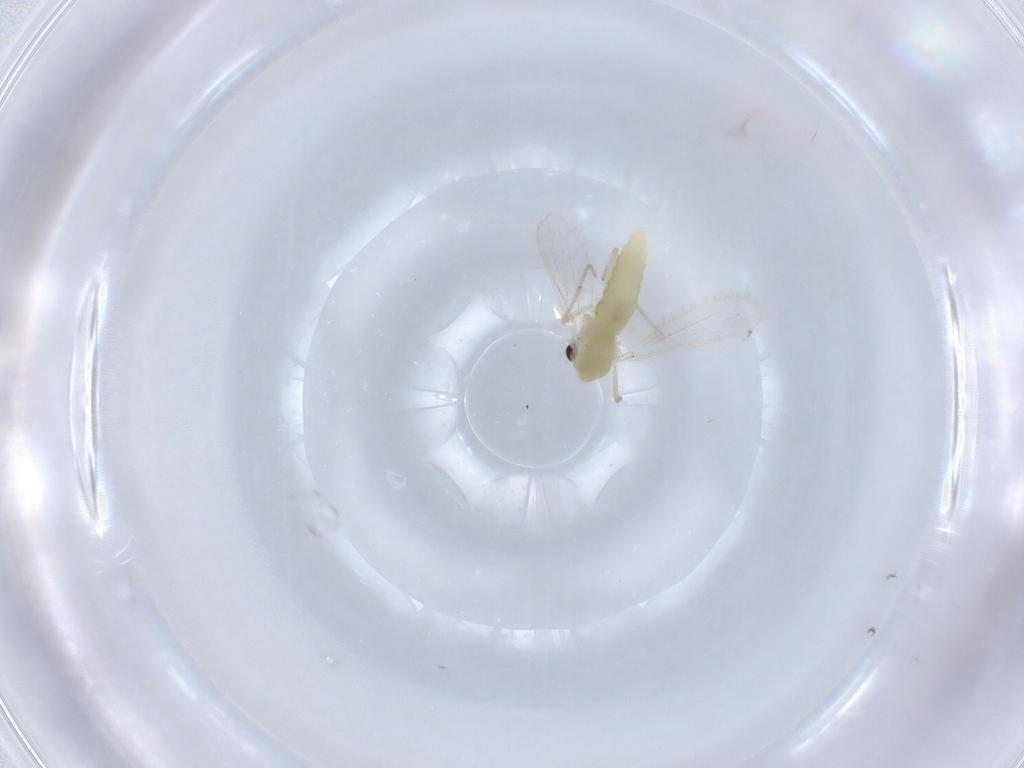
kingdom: Animalia
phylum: Arthropoda
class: Insecta
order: Diptera
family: Chironomidae
